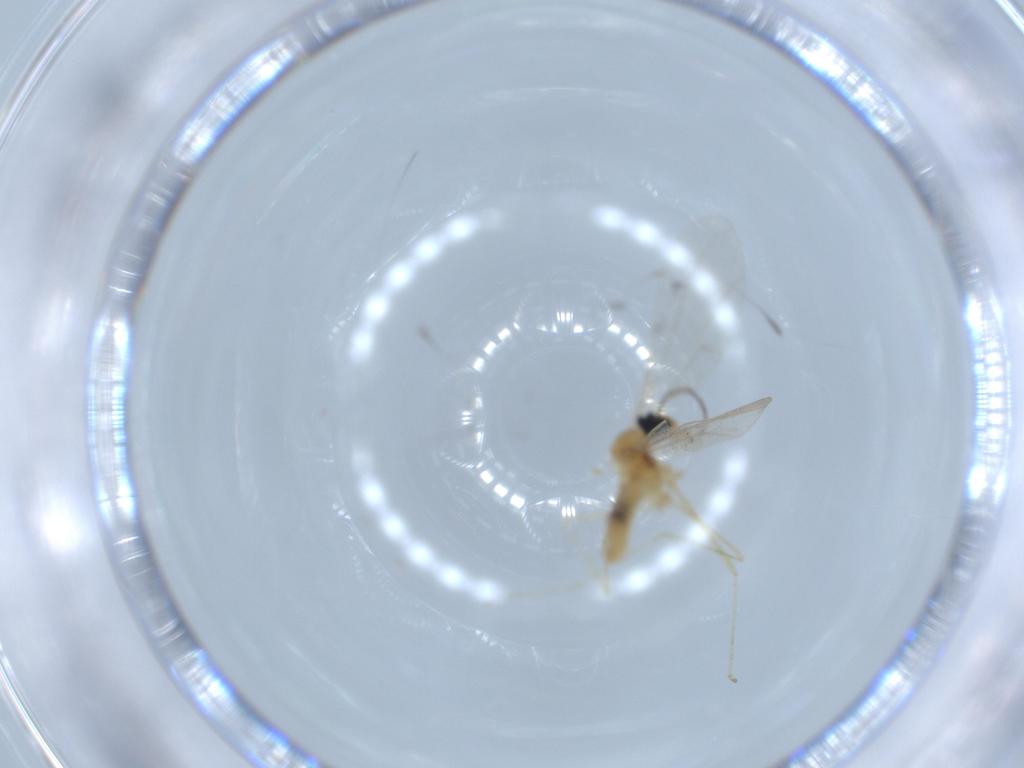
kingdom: Animalia
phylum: Arthropoda
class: Insecta
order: Diptera
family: Cecidomyiidae
